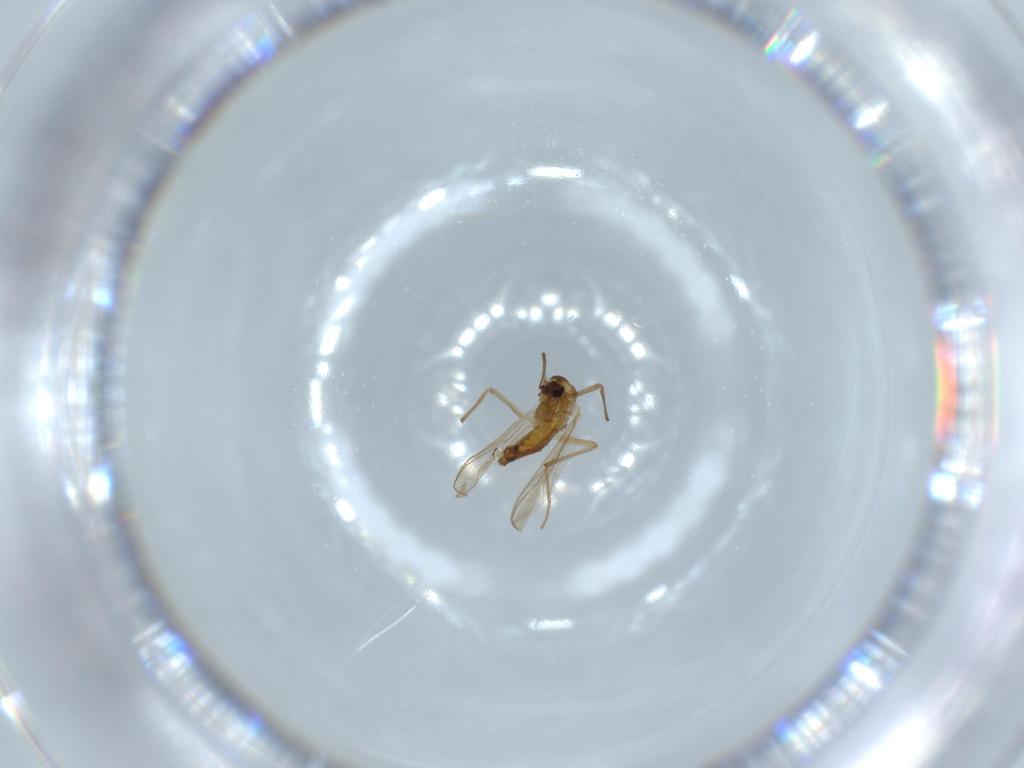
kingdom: Animalia
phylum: Arthropoda
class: Insecta
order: Diptera
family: Chironomidae
